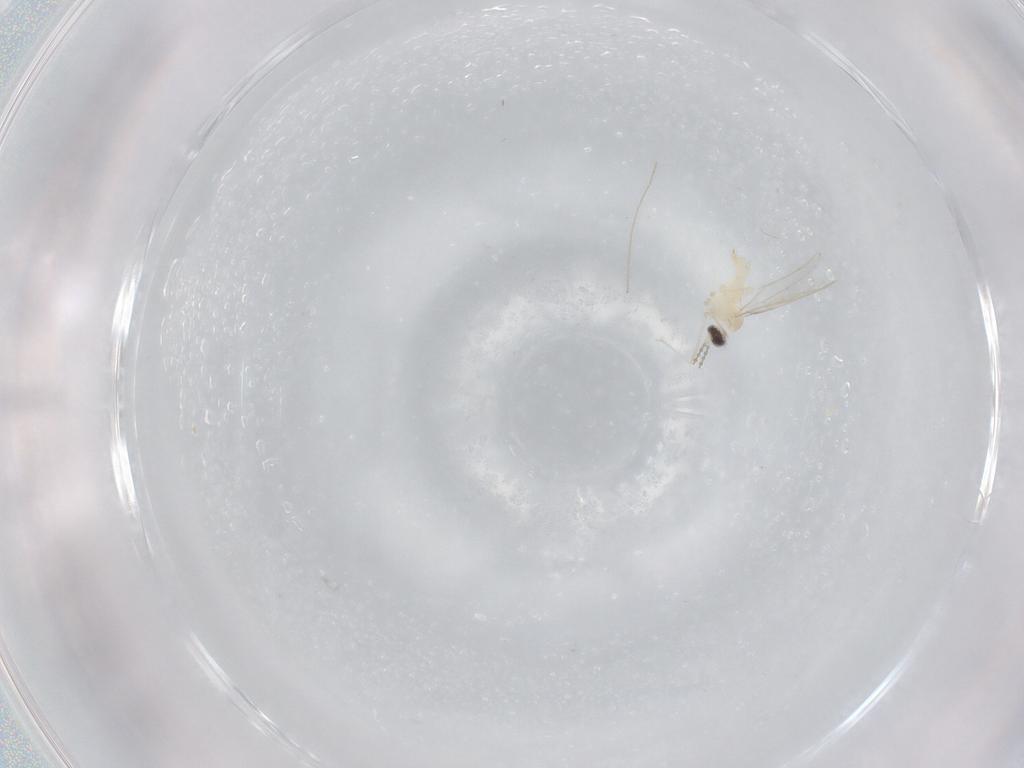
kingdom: Animalia
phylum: Arthropoda
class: Insecta
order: Diptera
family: Cecidomyiidae
